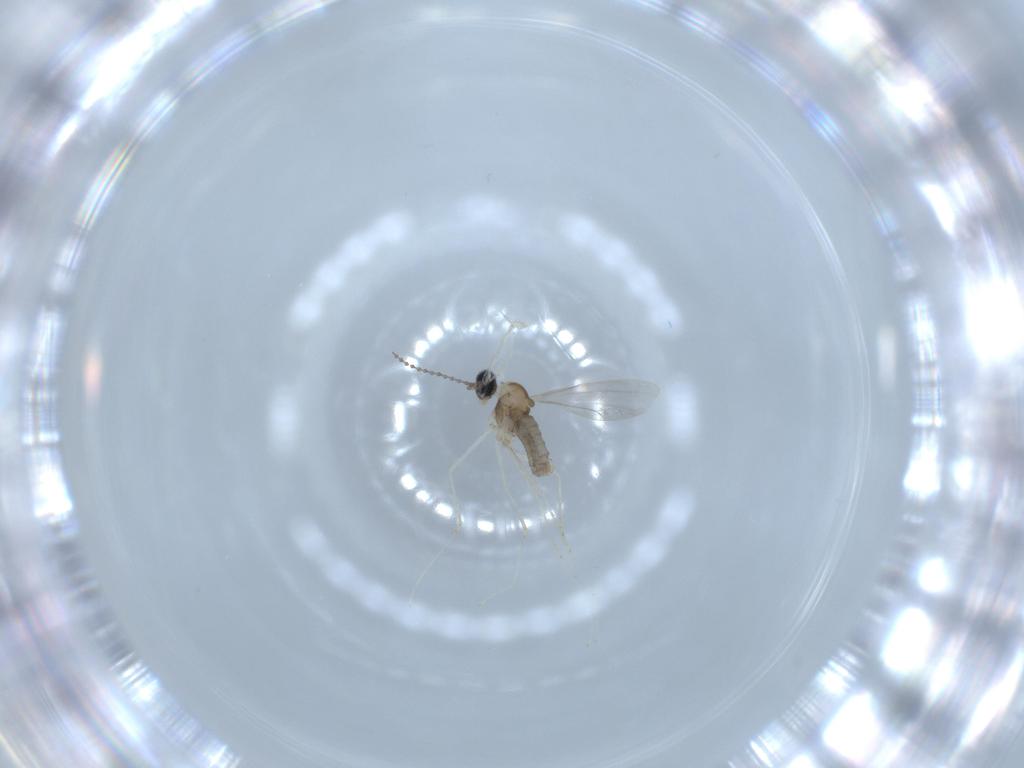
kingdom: Animalia
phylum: Arthropoda
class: Insecta
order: Diptera
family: Cecidomyiidae
